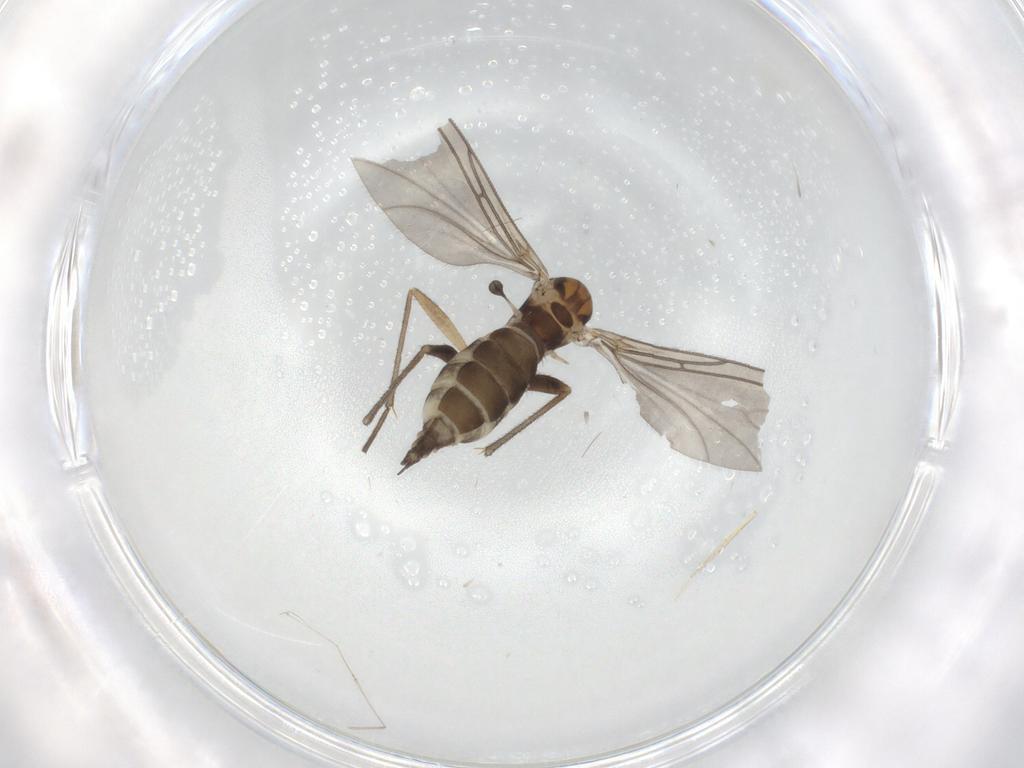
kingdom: Animalia
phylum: Arthropoda
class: Insecta
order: Diptera
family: Sciaridae
